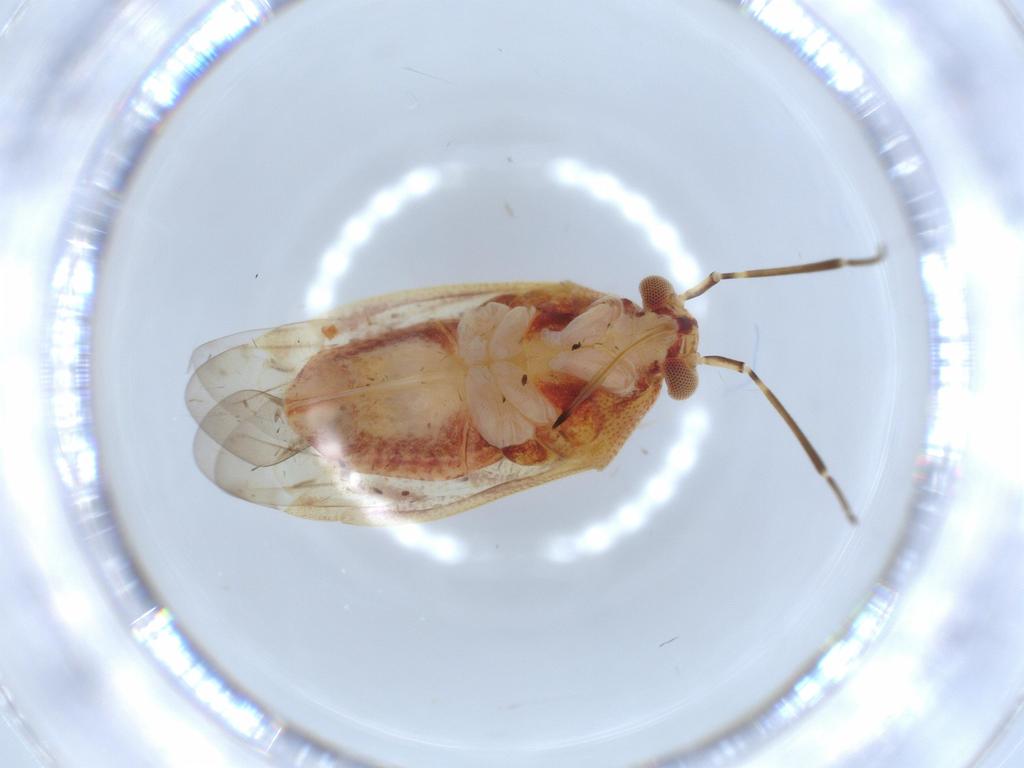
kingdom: Animalia
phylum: Arthropoda
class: Insecta
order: Hemiptera
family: Miridae
